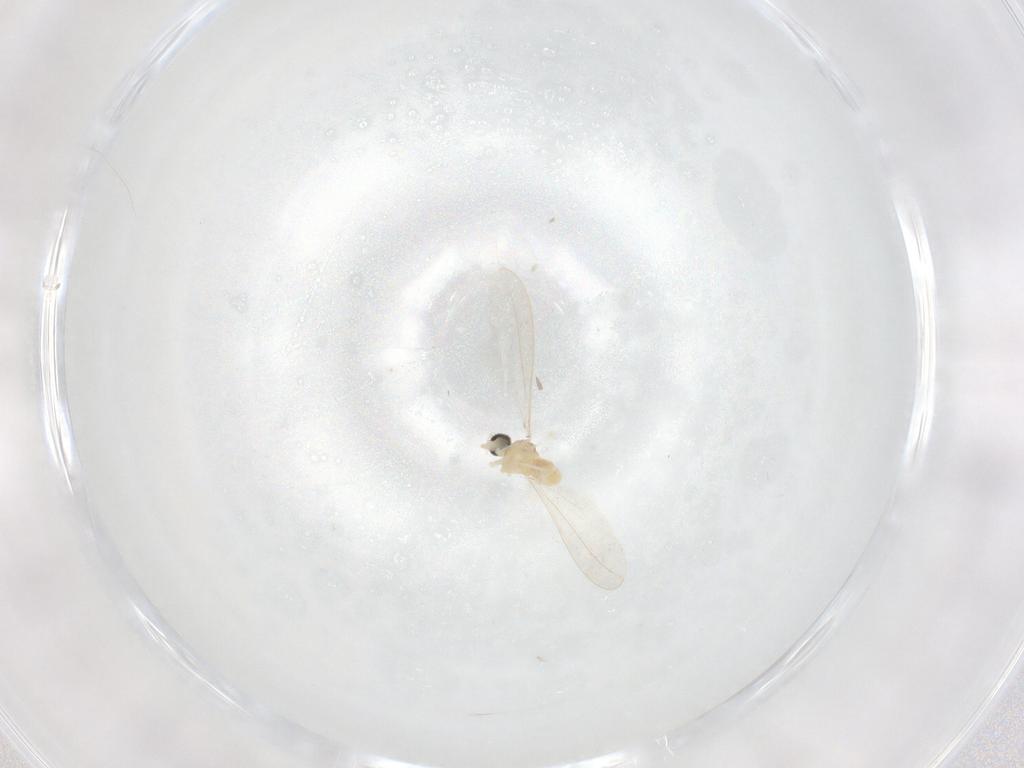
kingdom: Animalia
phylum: Arthropoda
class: Insecta
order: Diptera
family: Cecidomyiidae
